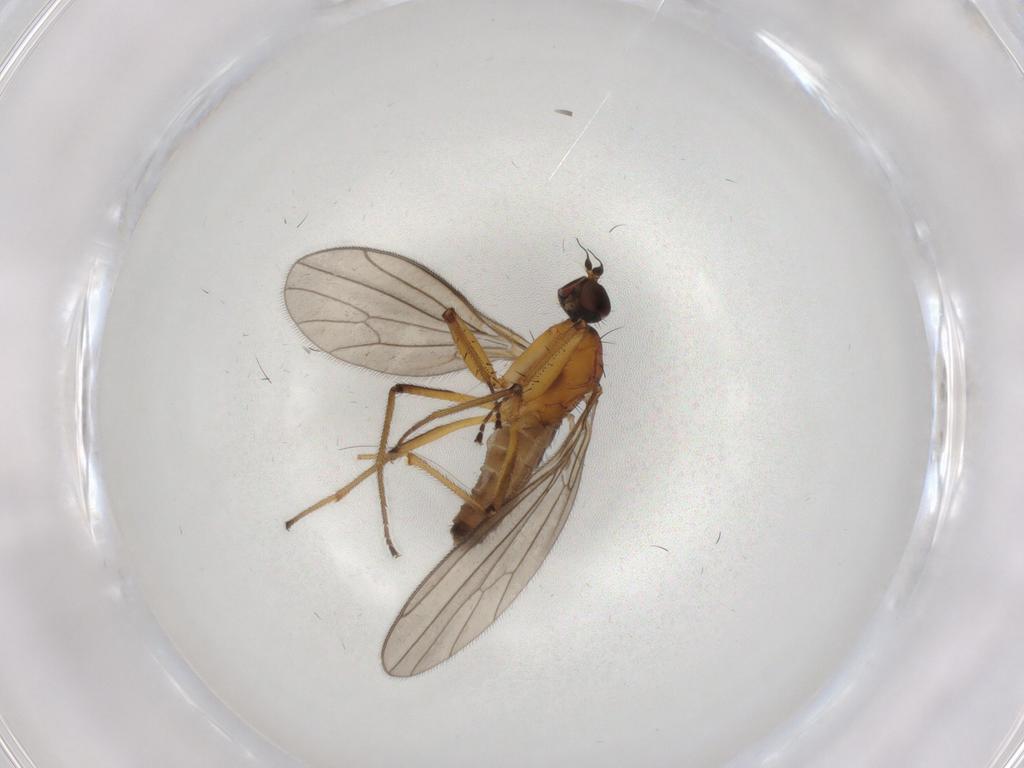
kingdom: Animalia
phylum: Arthropoda
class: Insecta
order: Diptera
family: Empididae
